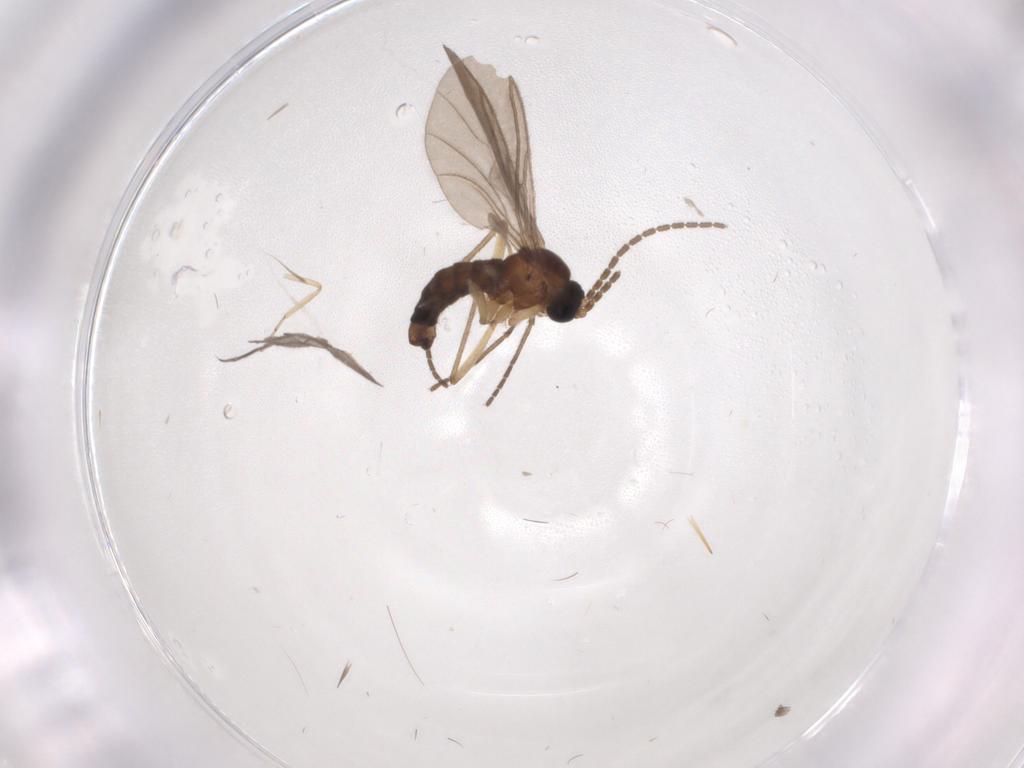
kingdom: Animalia
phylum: Arthropoda
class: Insecta
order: Diptera
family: Sciaridae
